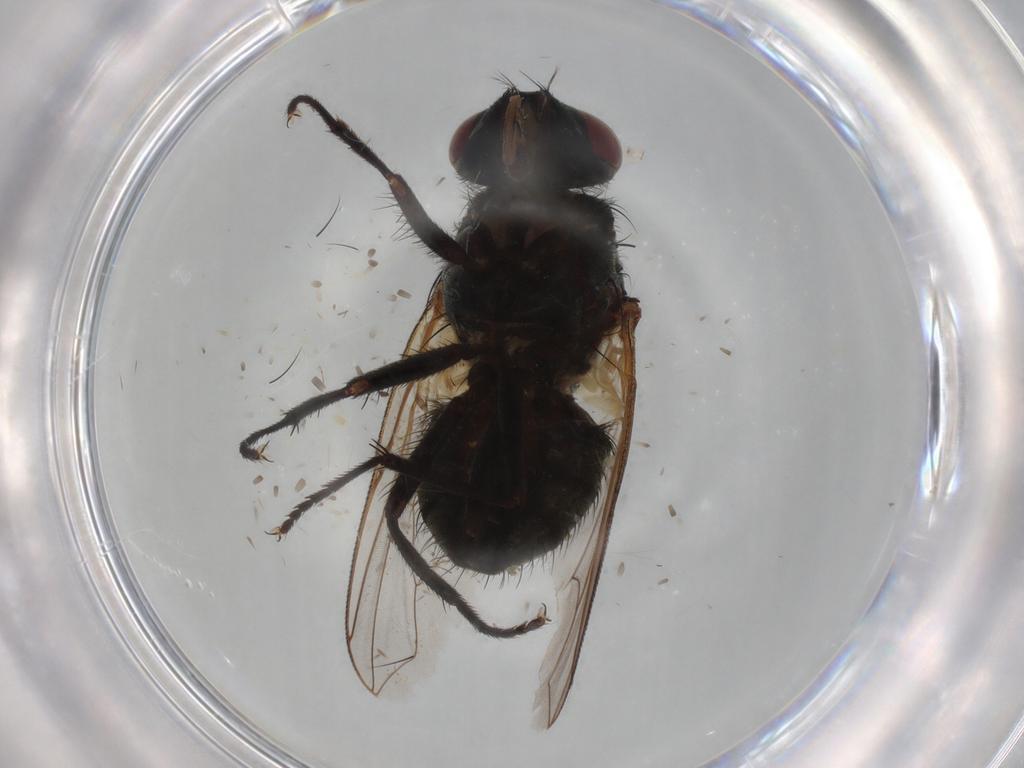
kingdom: Animalia
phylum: Arthropoda
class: Insecta
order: Diptera
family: Muscidae
